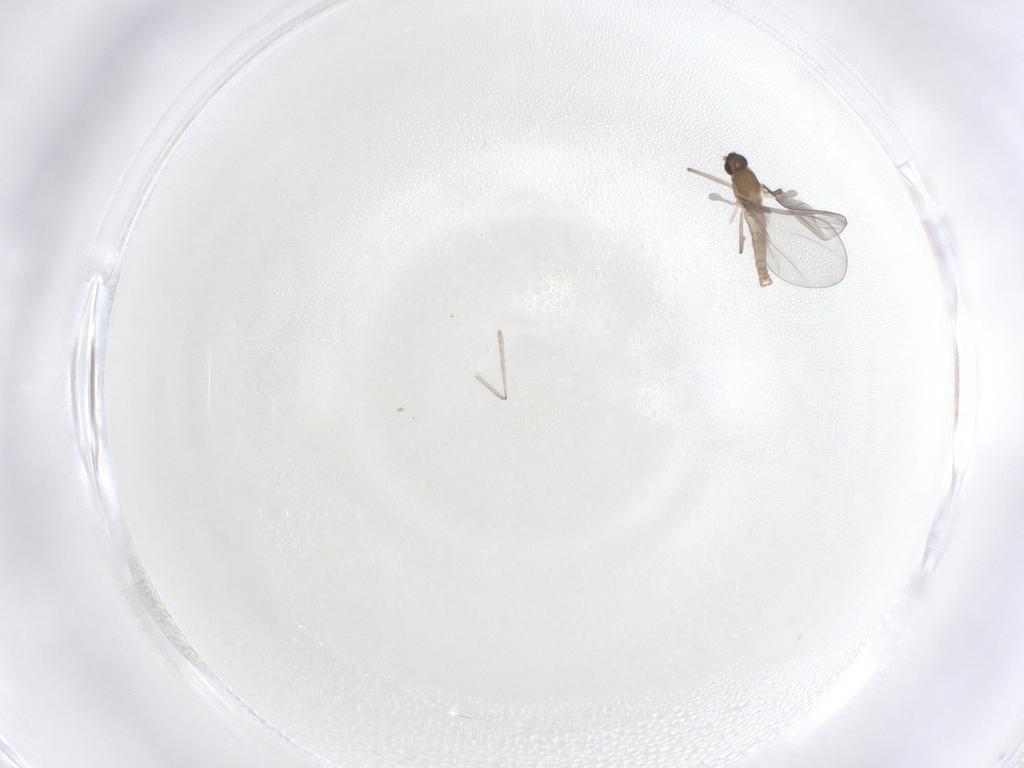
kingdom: Animalia
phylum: Arthropoda
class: Insecta
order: Diptera
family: Cecidomyiidae
